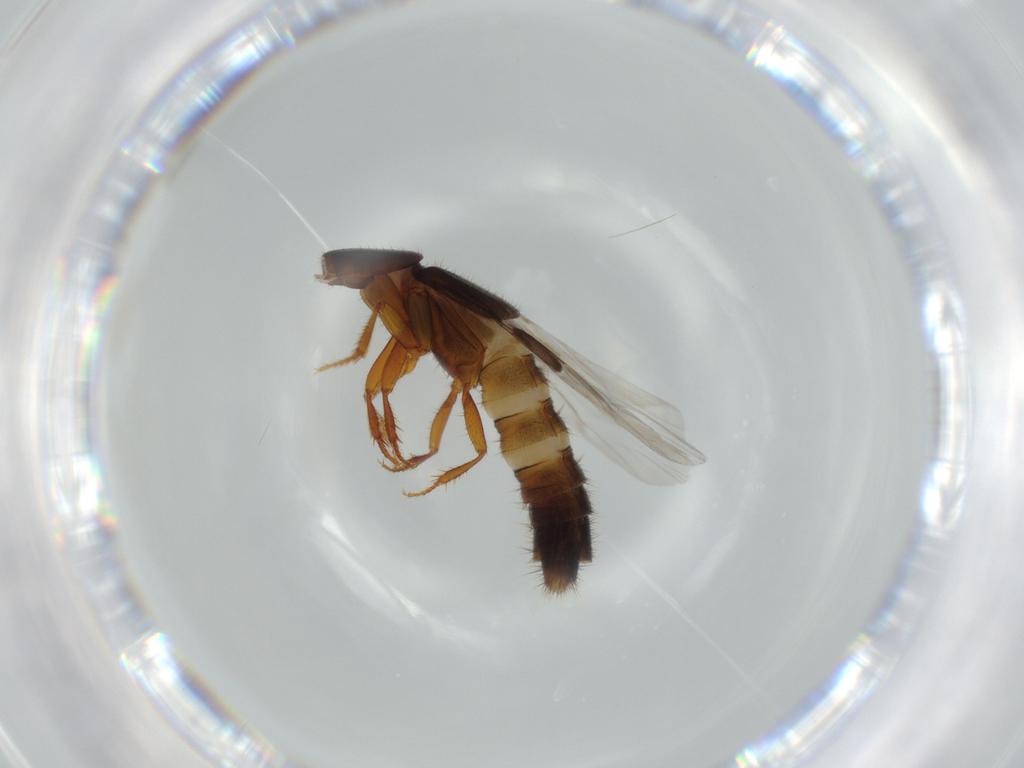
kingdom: Animalia
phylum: Arthropoda
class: Insecta
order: Coleoptera
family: Staphylinidae
